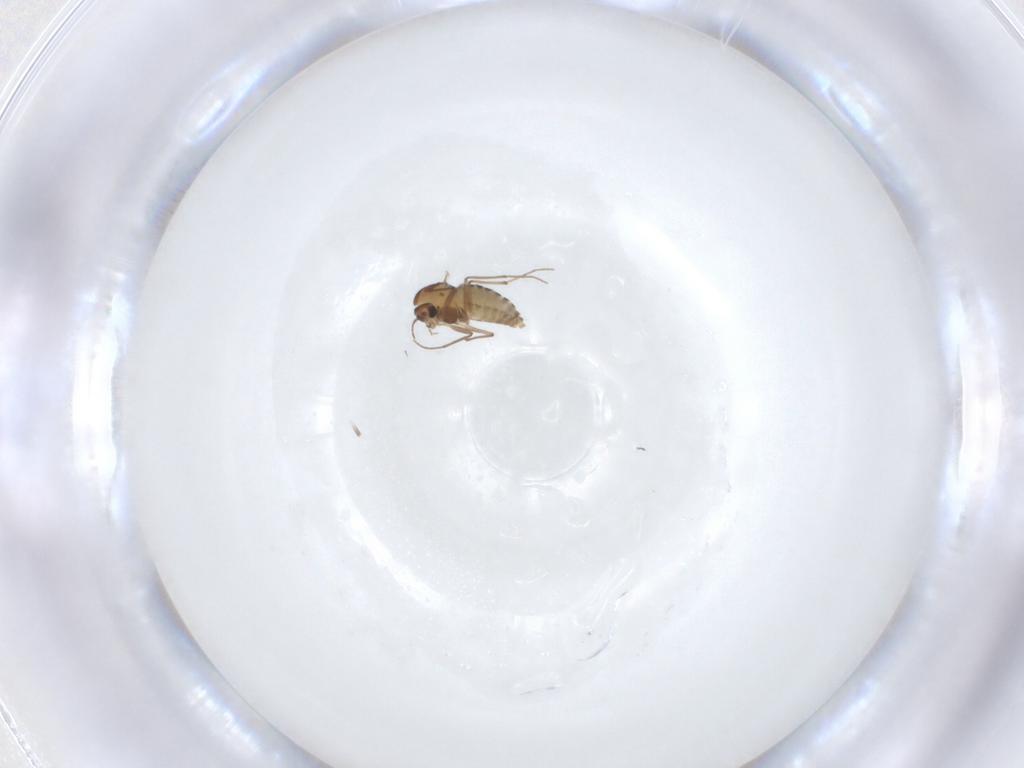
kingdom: Animalia
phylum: Arthropoda
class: Insecta
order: Diptera
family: Chironomidae
